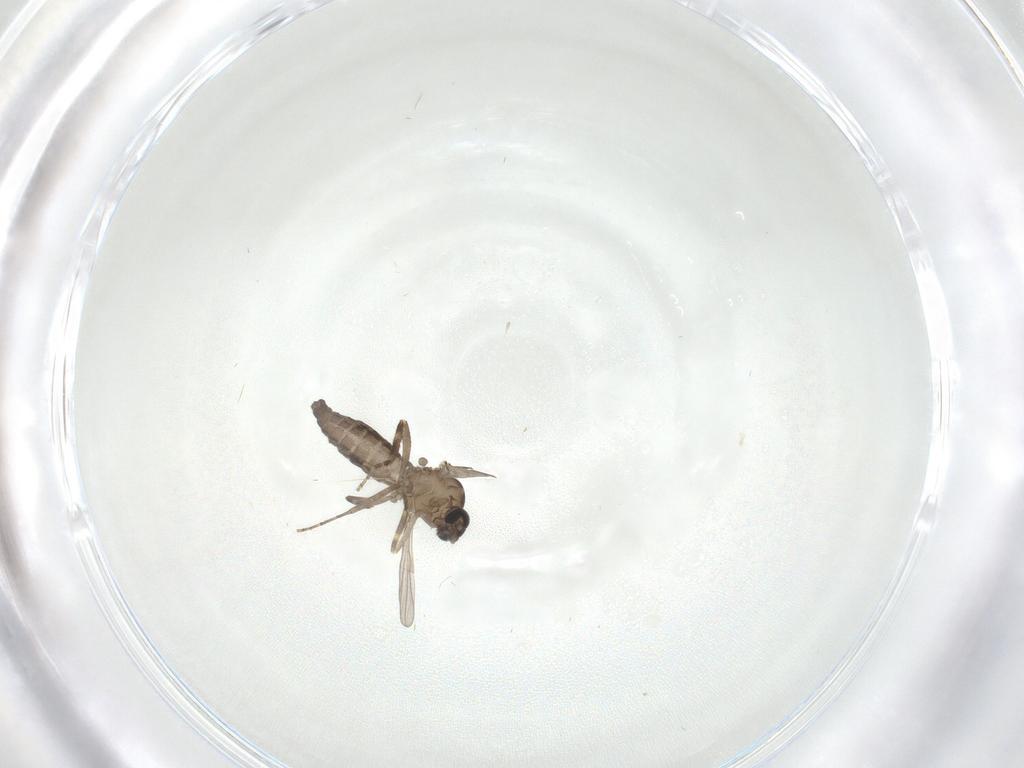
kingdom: Animalia
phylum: Arthropoda
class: Insecta
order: Diptera
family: Ceratopogonidae
